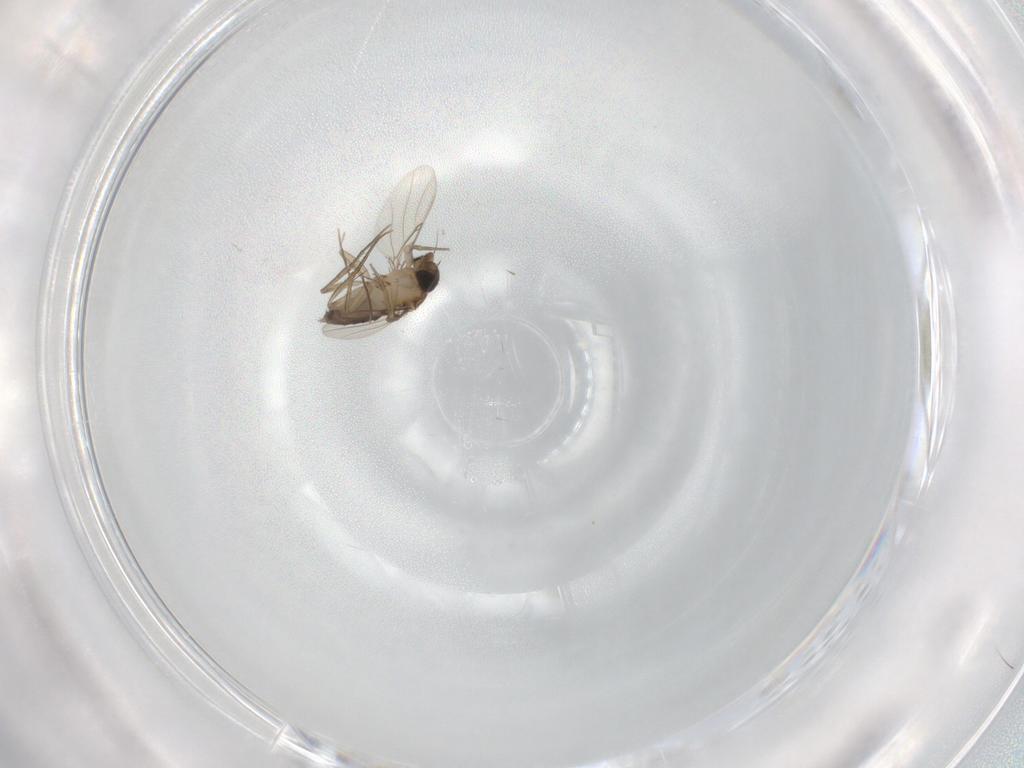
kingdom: Animalia
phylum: Arthropoda
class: Insecta
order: Diptera
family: Phoridae
